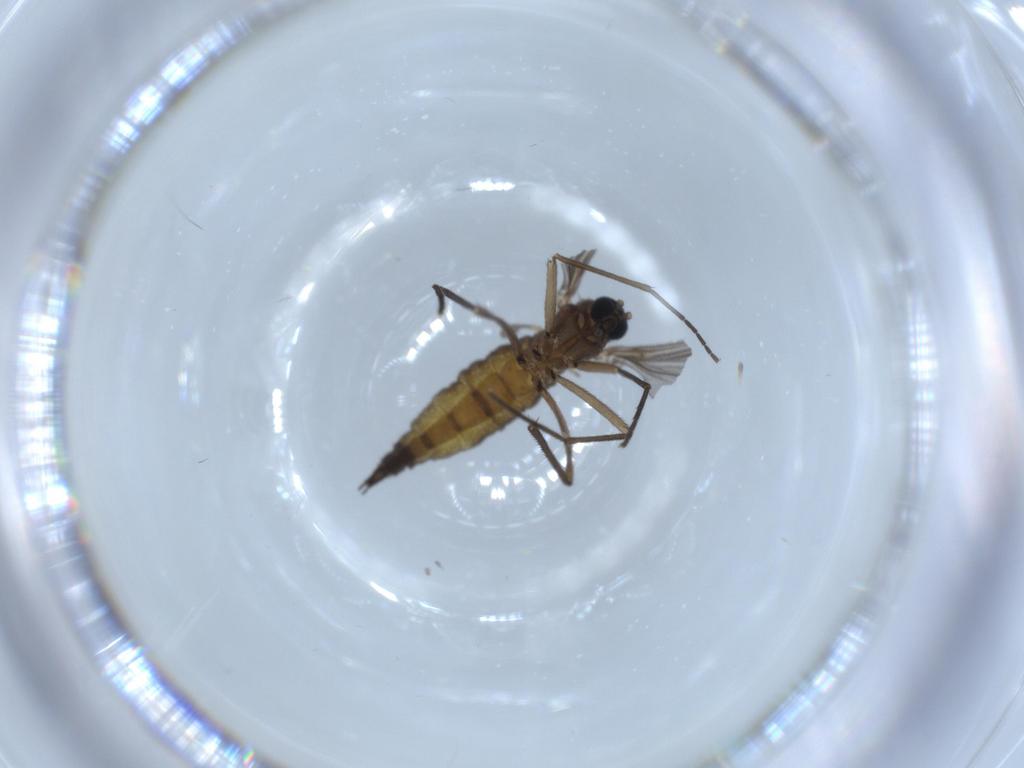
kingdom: Animalia
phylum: Arthropoda
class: Insecta
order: Diptera
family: Sciaridae
